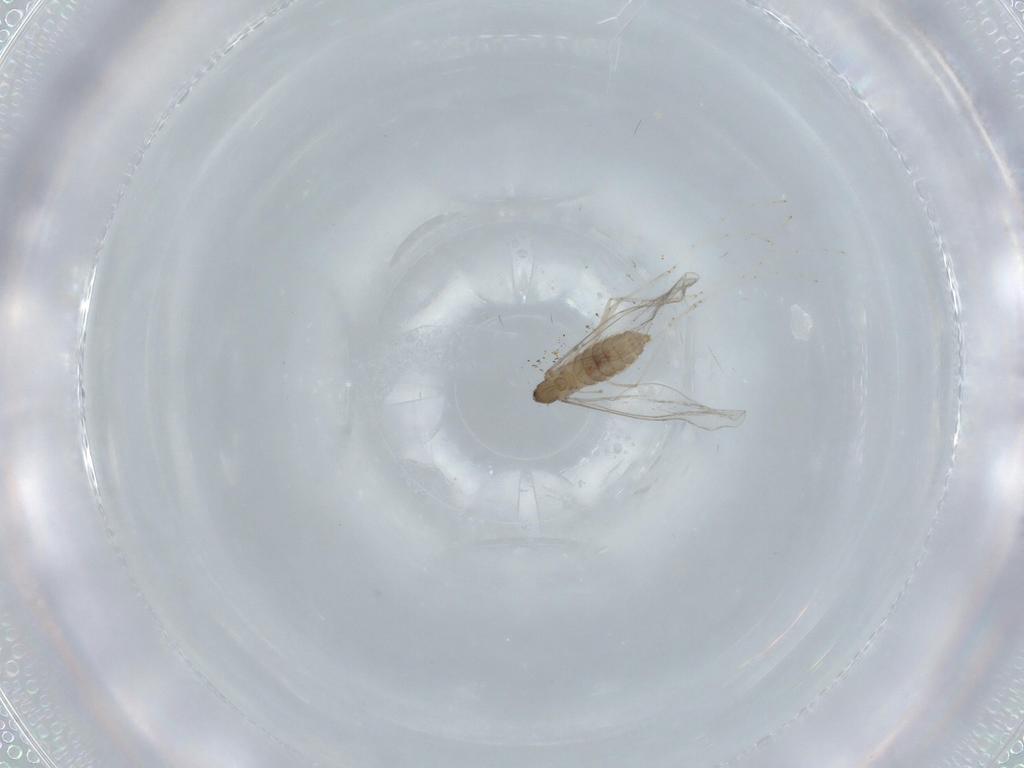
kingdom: Animalia
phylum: Arthropoda
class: Insecta
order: Diptera
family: Cecidomyiidae
